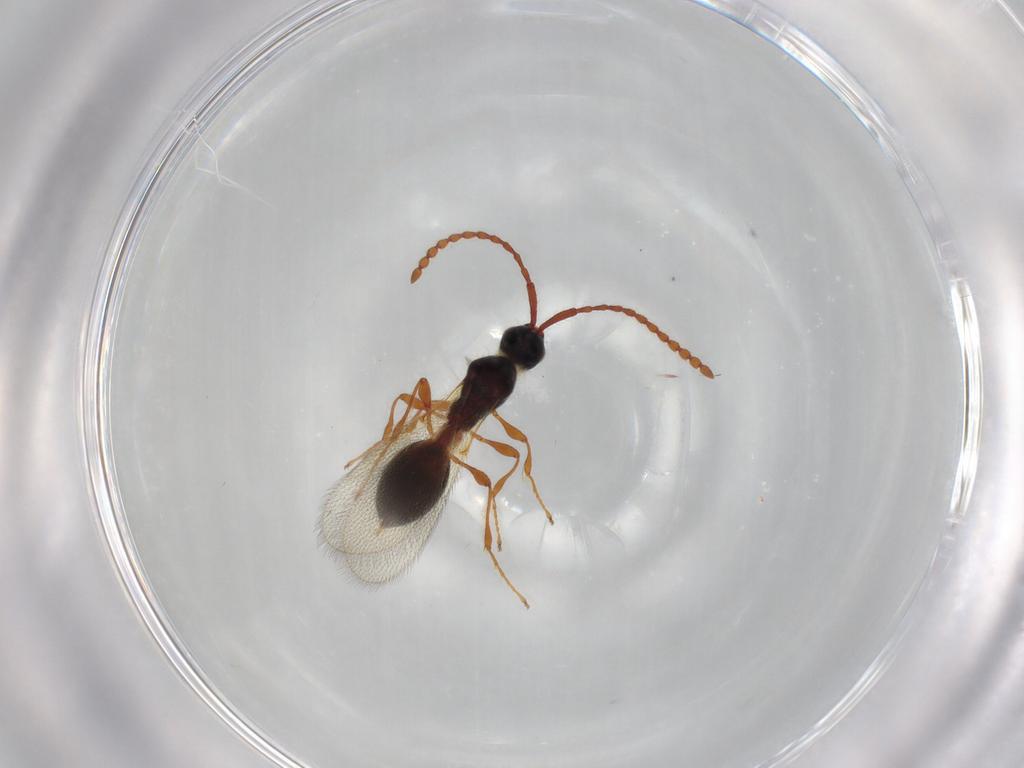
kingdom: Animalia
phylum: Arthropoda
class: Insecta
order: Hymenoptera
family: Diapriidae
